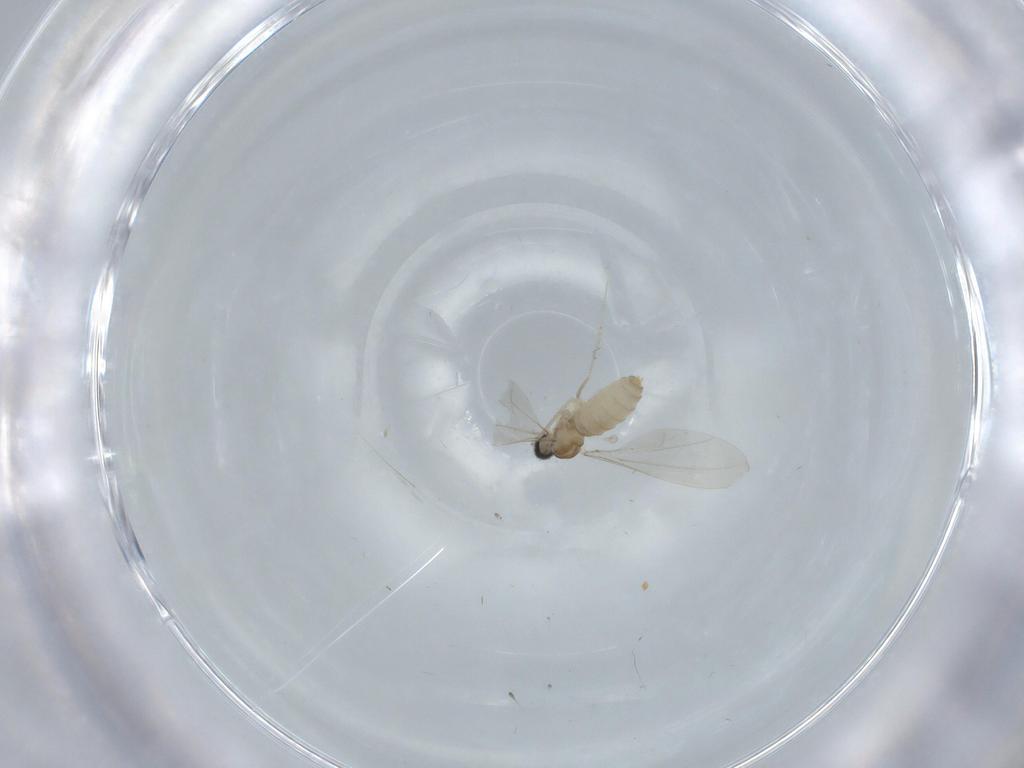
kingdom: Animalia
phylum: Arthropoda
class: Insecta
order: Diptera
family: Cecidomyiidae
